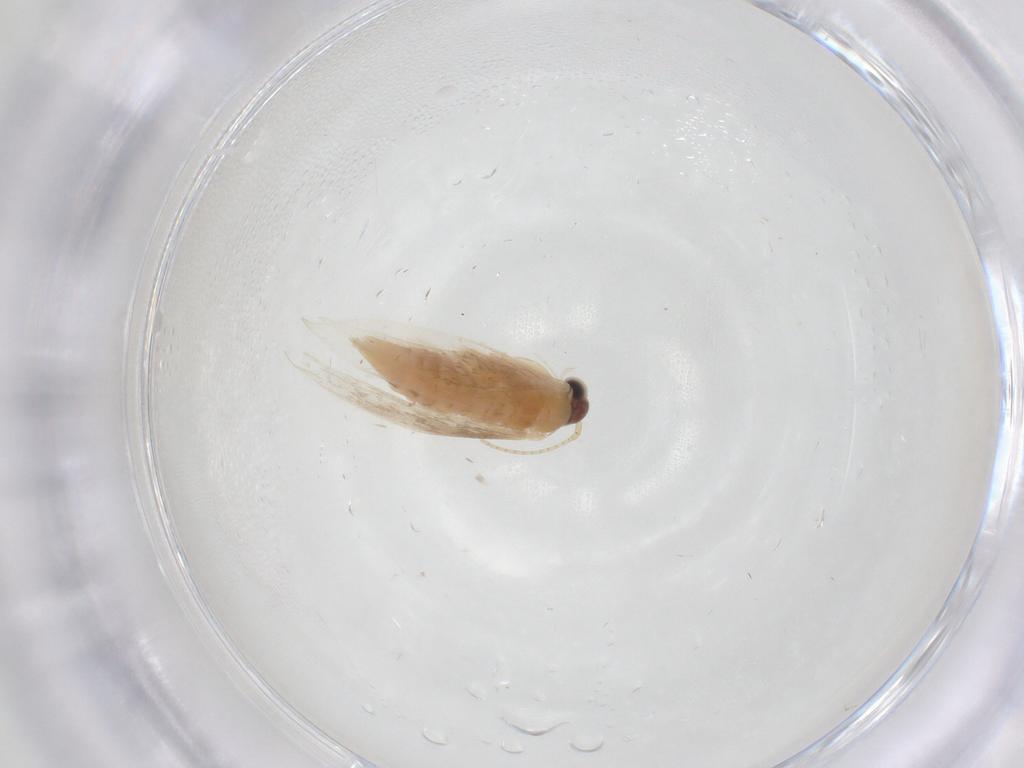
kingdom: Animalia
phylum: Arthropoda
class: Insecta
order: Lepidoptera
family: Tineidae
